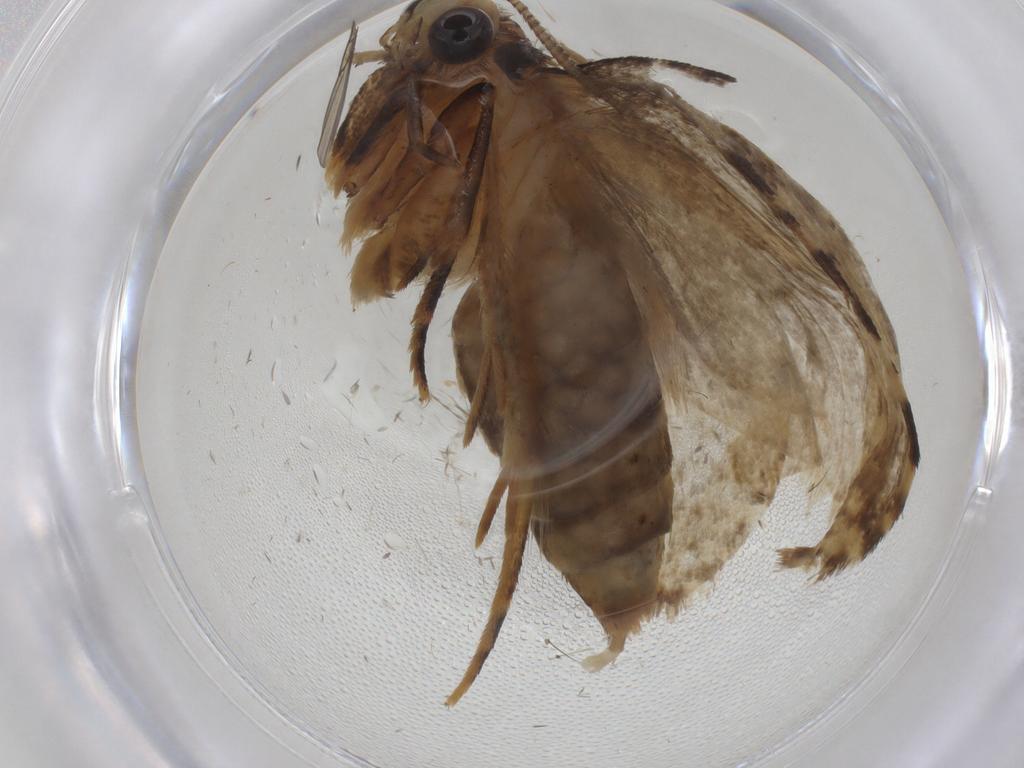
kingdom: Animalia
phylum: Arthropoda
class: Insecta
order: Lepidoptera
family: Tineidae
